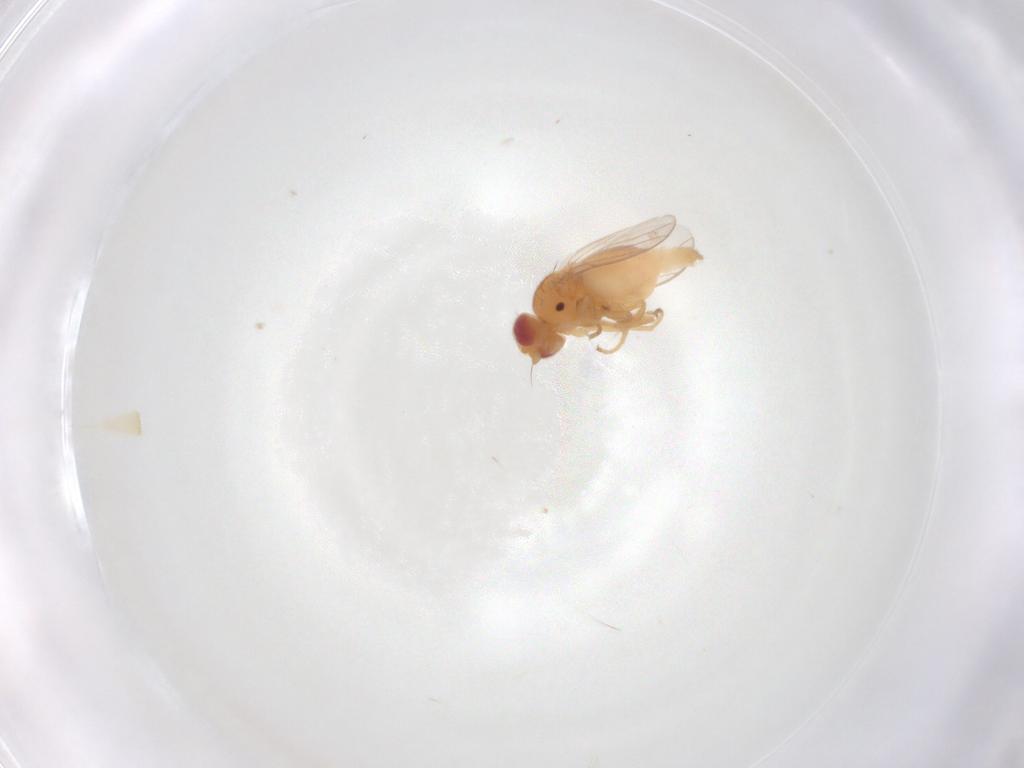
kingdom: Animalia
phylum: Arthropoda
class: Insecta
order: Diptera
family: Chloropidae
